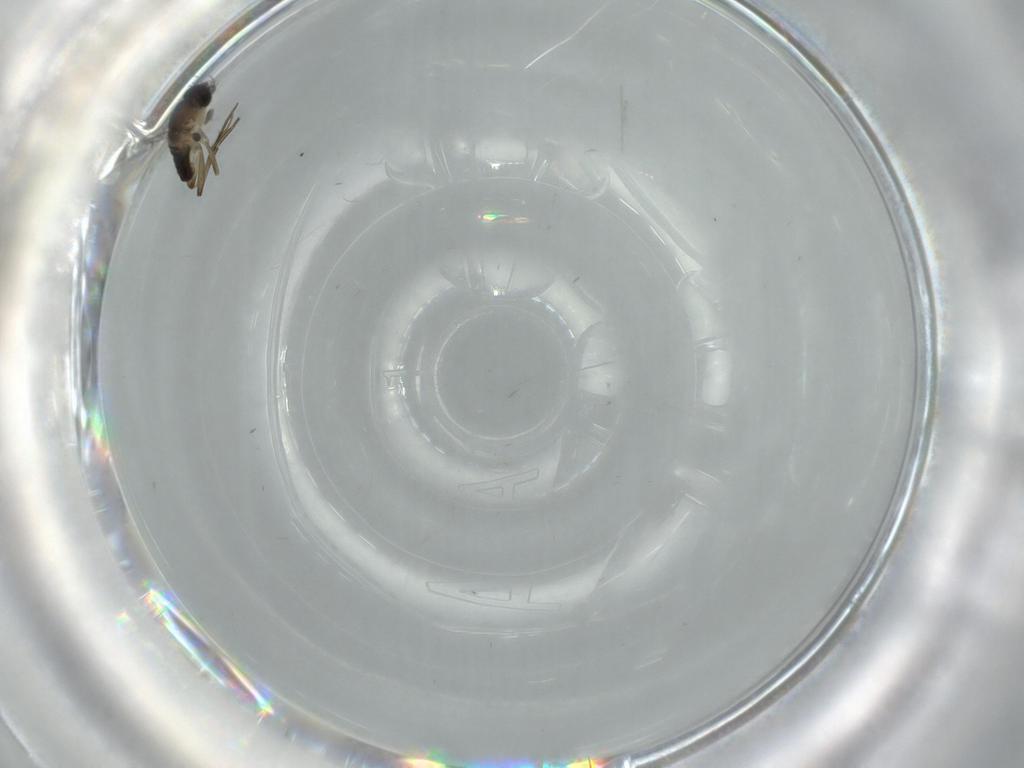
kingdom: Animalia
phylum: Arthropoda
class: Insecta
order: Diptera
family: Phoridae
